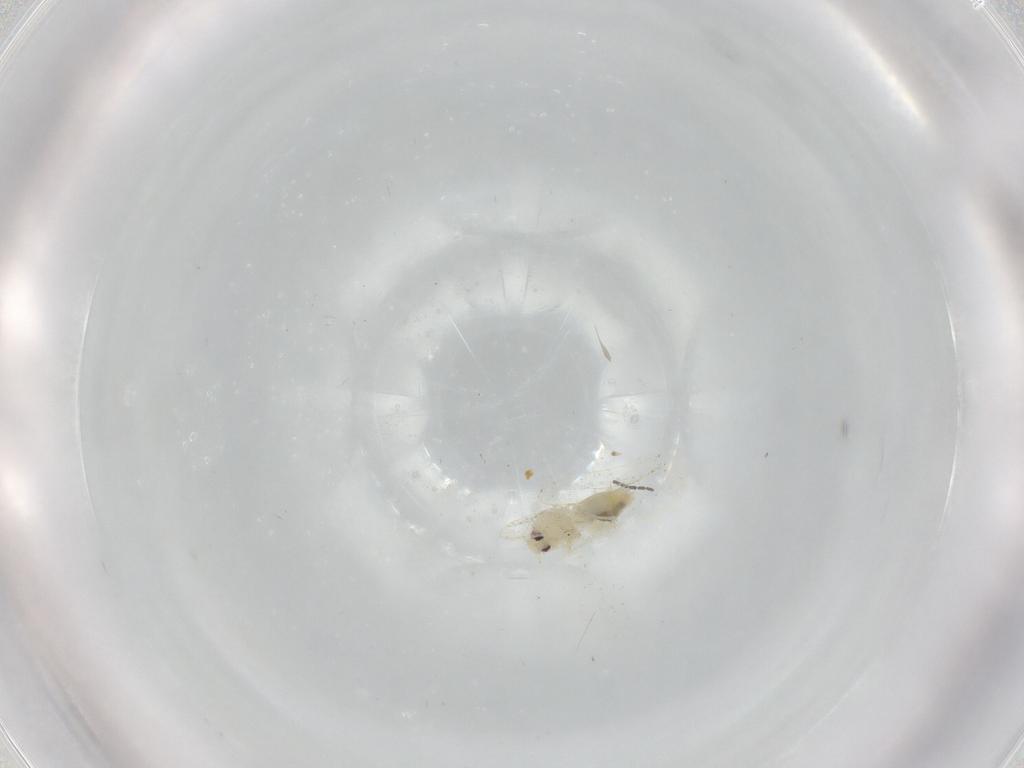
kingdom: Animalia
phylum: Arthropoda
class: Insecta
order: Hemiptera
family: Aleyrodidae
